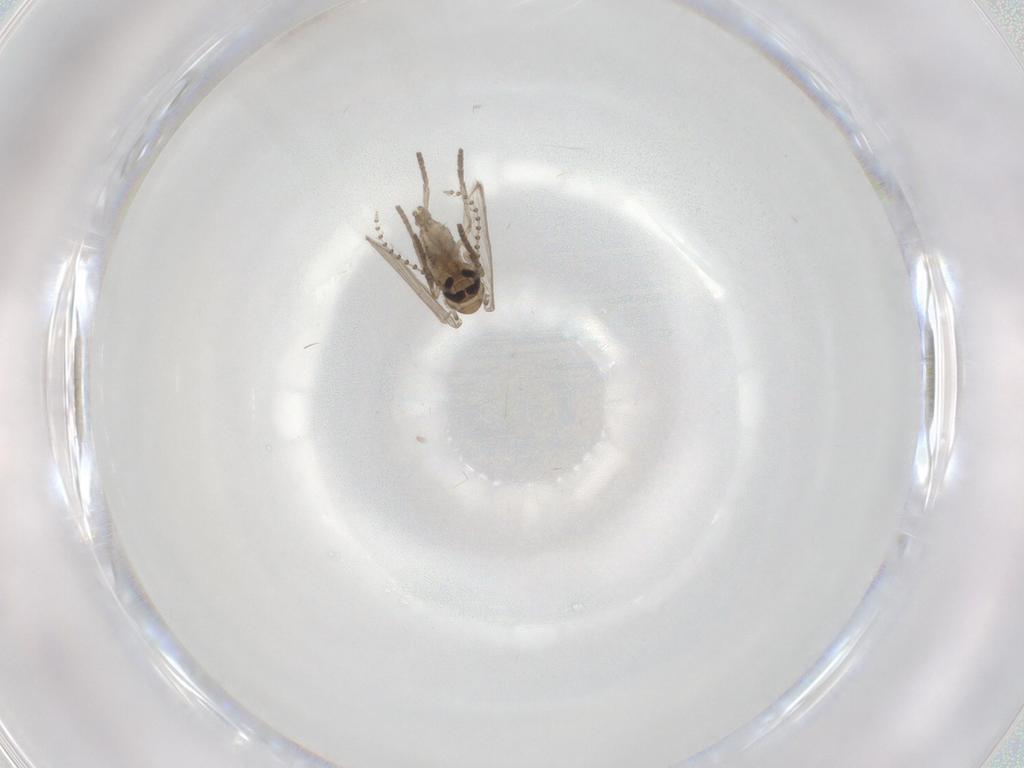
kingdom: Animalia
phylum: Arthropoda
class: Insecta
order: Diptera
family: Psychodidae
